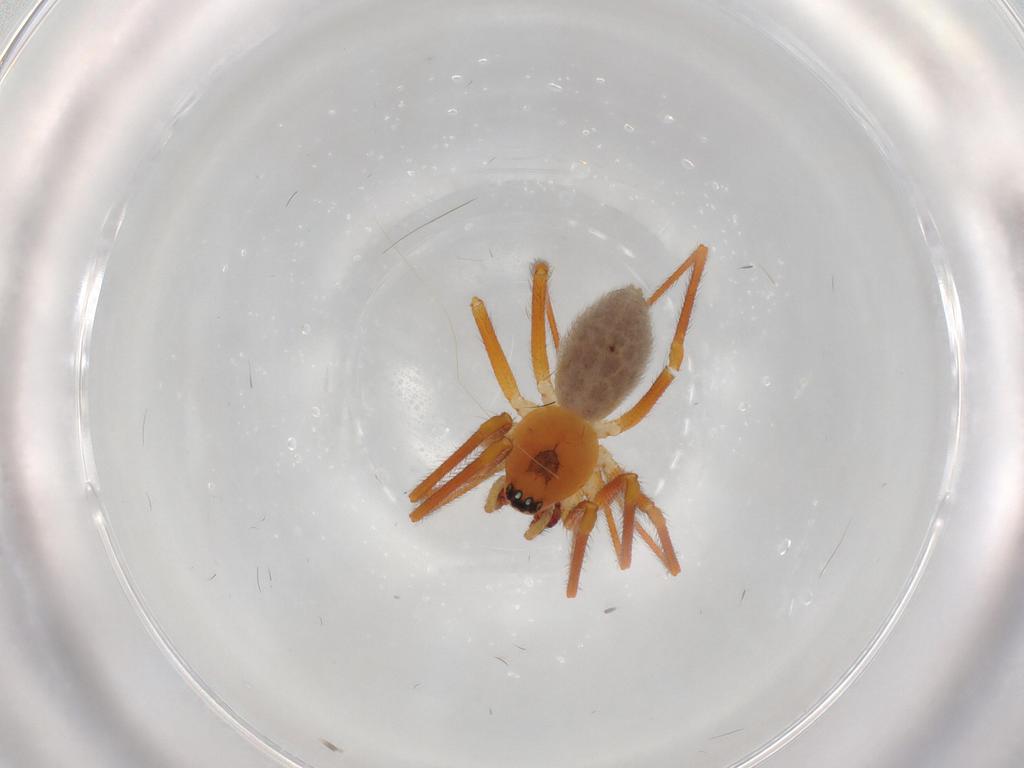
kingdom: Animalia
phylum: Arthropoda
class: Arachnida
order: Araneae
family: Linyphiidae
